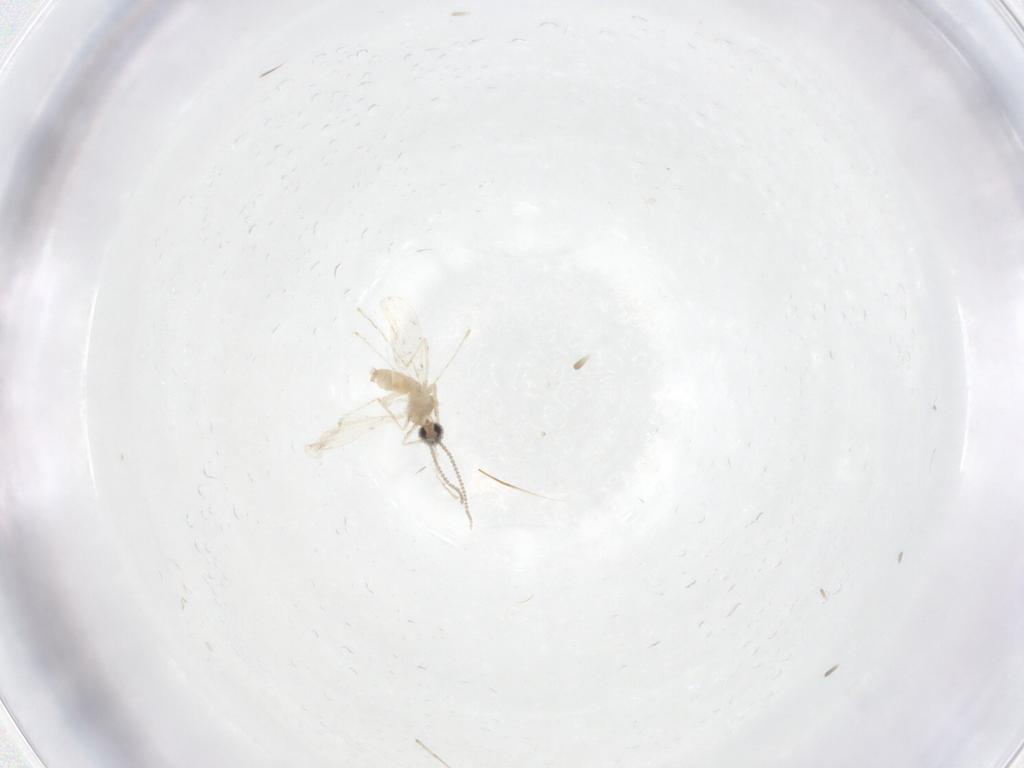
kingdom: Animalia
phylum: Arthropoda
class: Insecta
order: Diptera
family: Cecidomyiidae
